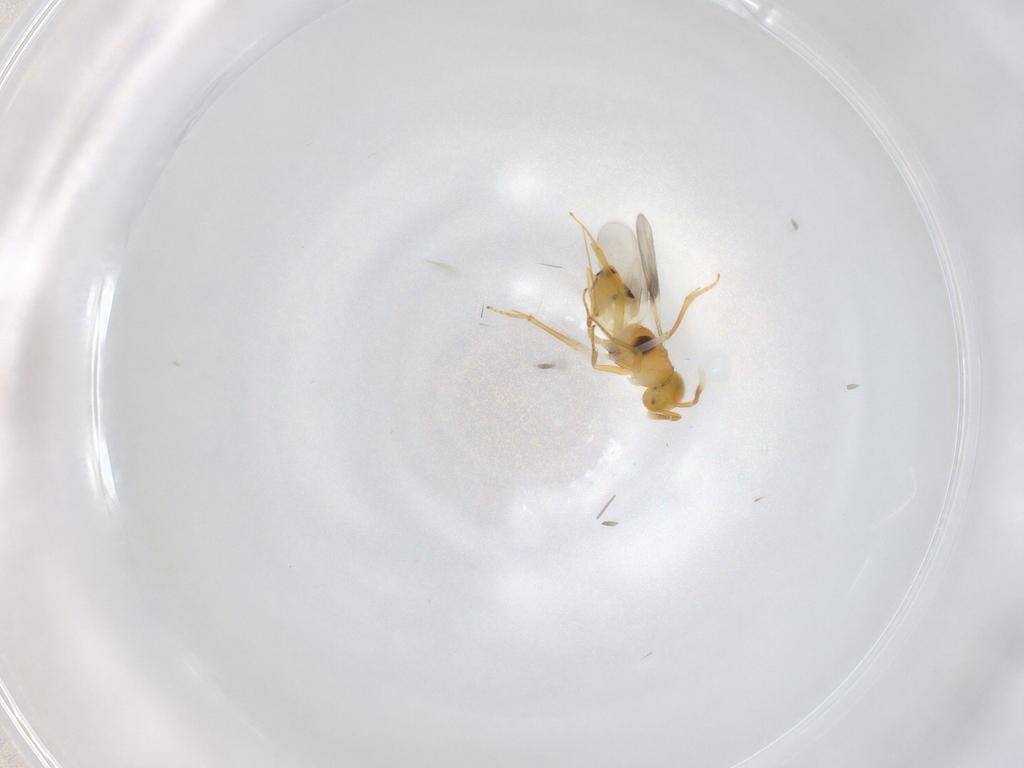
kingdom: Animalia
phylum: Arthropoda
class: Insecta
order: Hymenoptera
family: Encyrtidae
